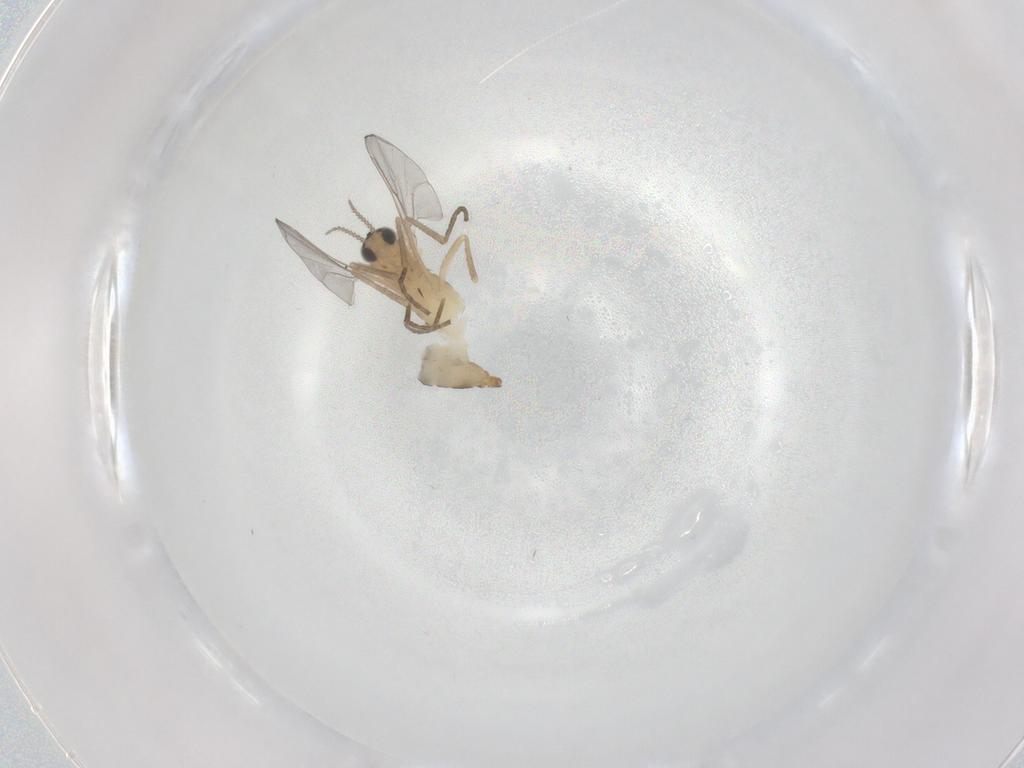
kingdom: Animalia
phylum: Arthropoda
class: Insecta
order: Diptera
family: Cecidomyiidae
